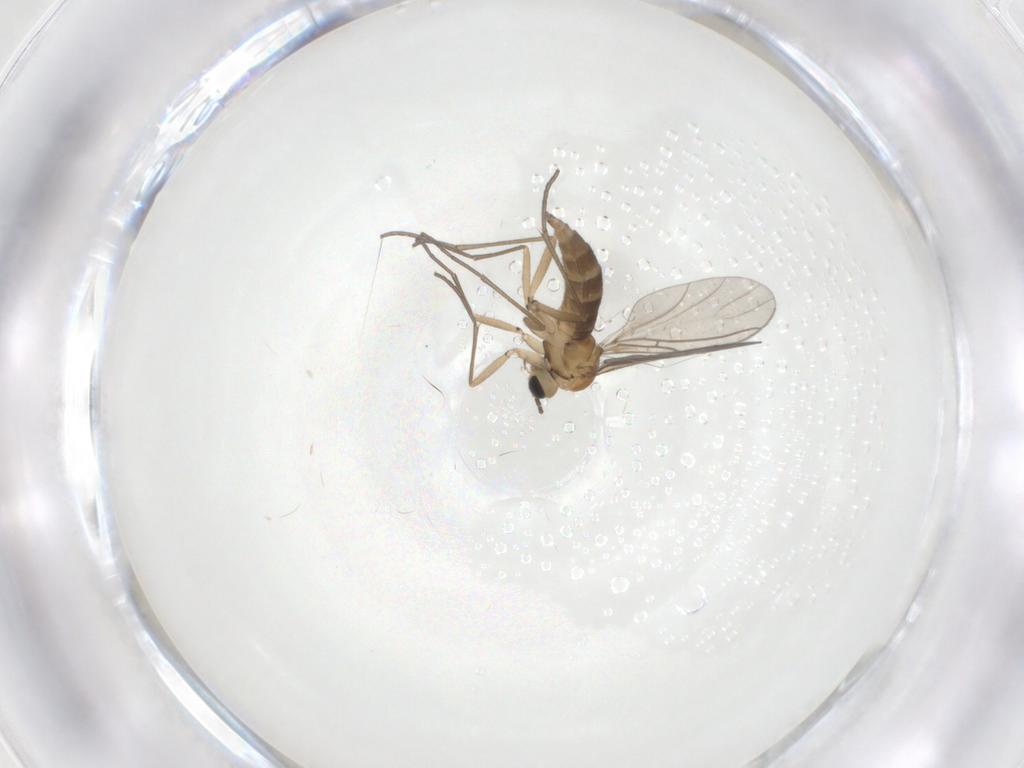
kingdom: Animalia
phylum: Arthropoda
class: Insecta
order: Diptera
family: Sciaridae
